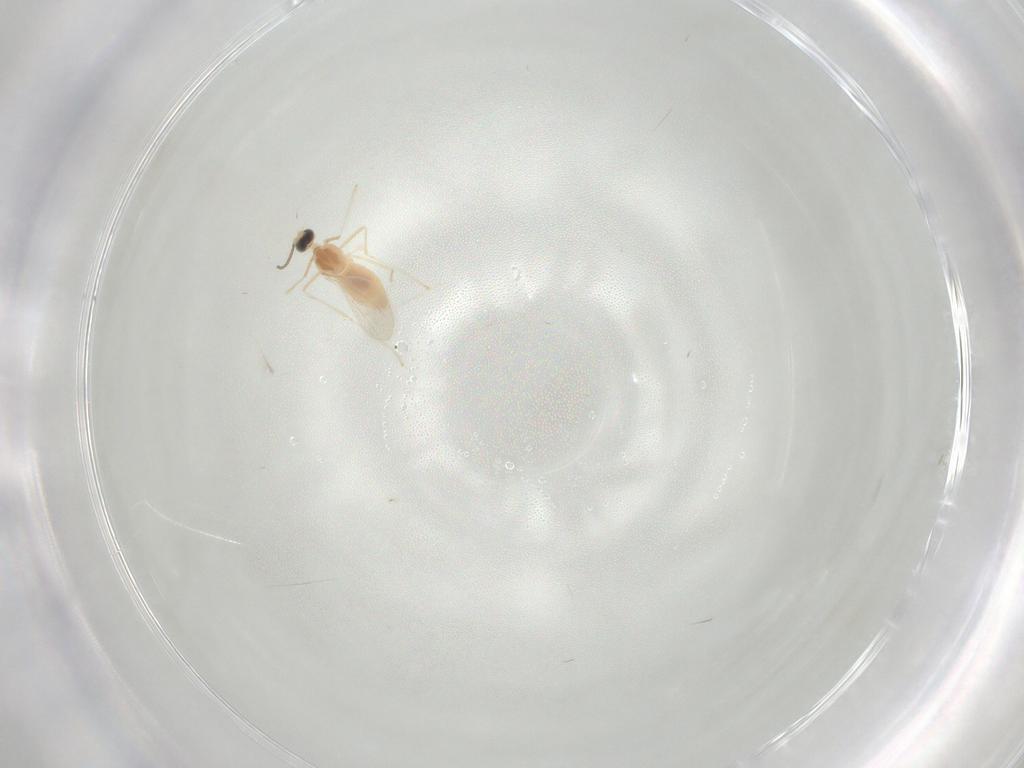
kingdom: Animalia
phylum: Arthropoda
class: Insecta
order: Diptera
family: Cecidomyiidae
